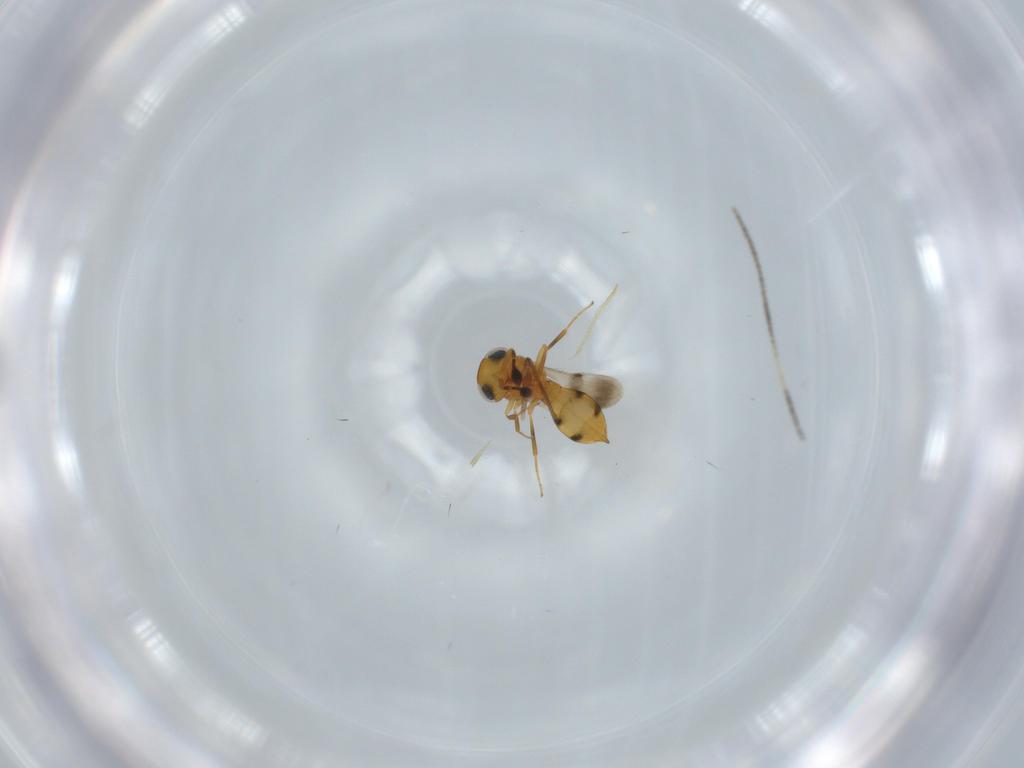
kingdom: Animalia
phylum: Arthropoda
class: Insecta
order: Hymenoptera
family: Scelionidae
